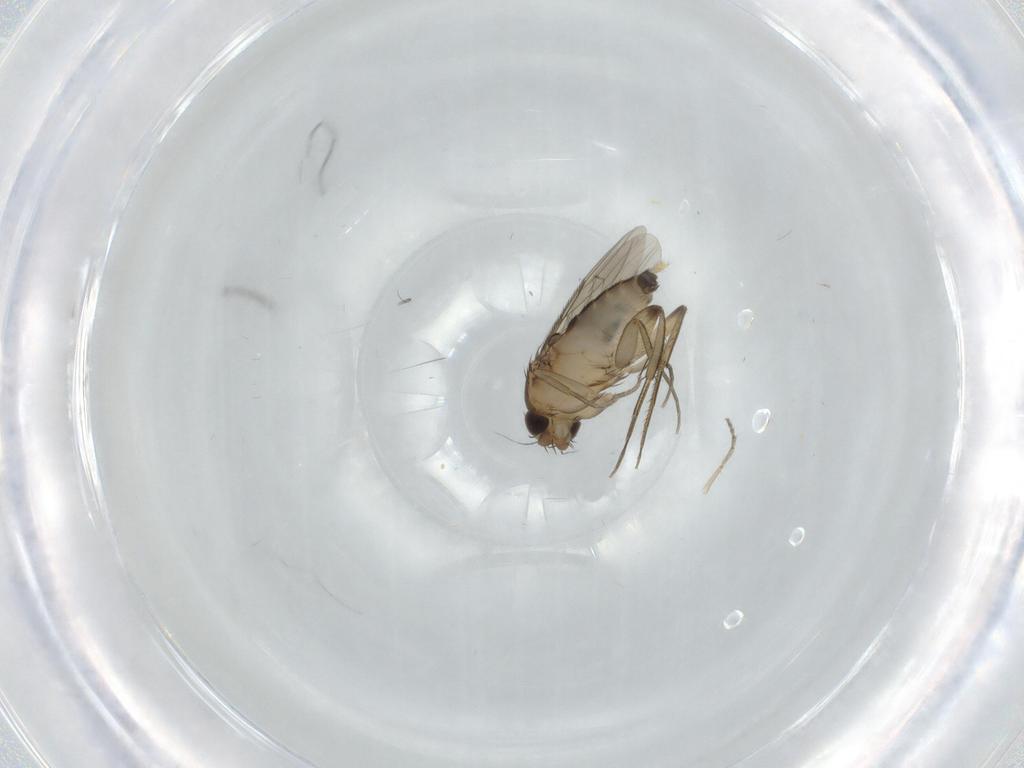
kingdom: Animalia
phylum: Arthropoda
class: Insecta
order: Diptera
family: Phoridae
